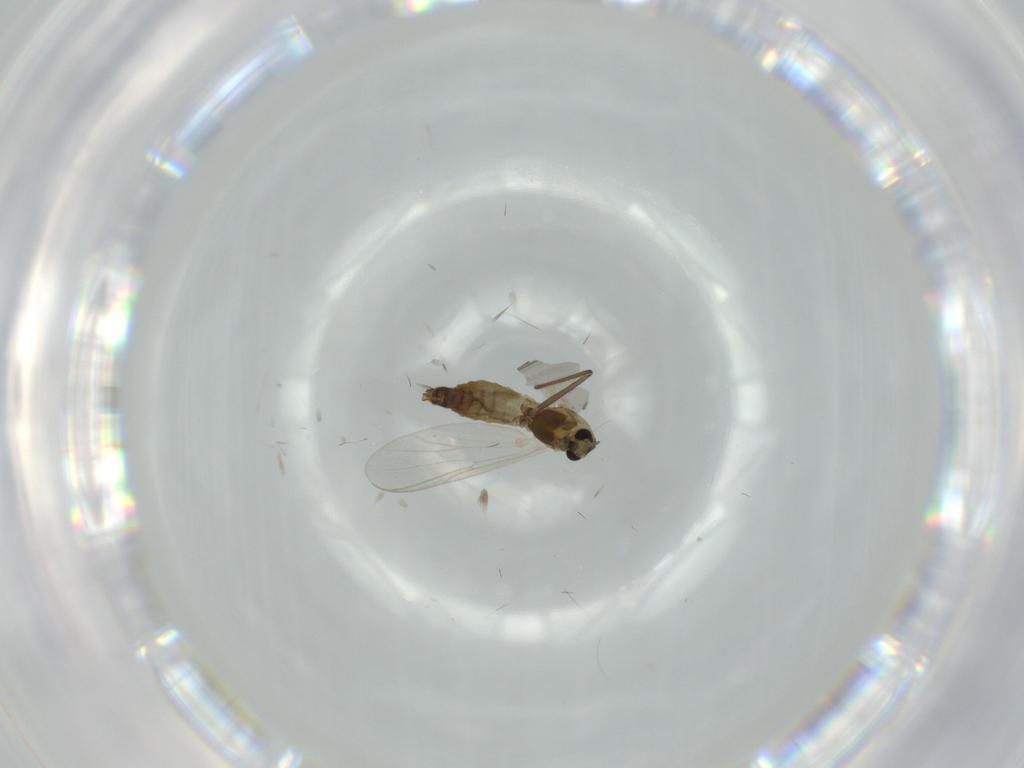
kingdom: Animalia
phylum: Arthropoda
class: Insecta
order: Diptera
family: Chironomidae
